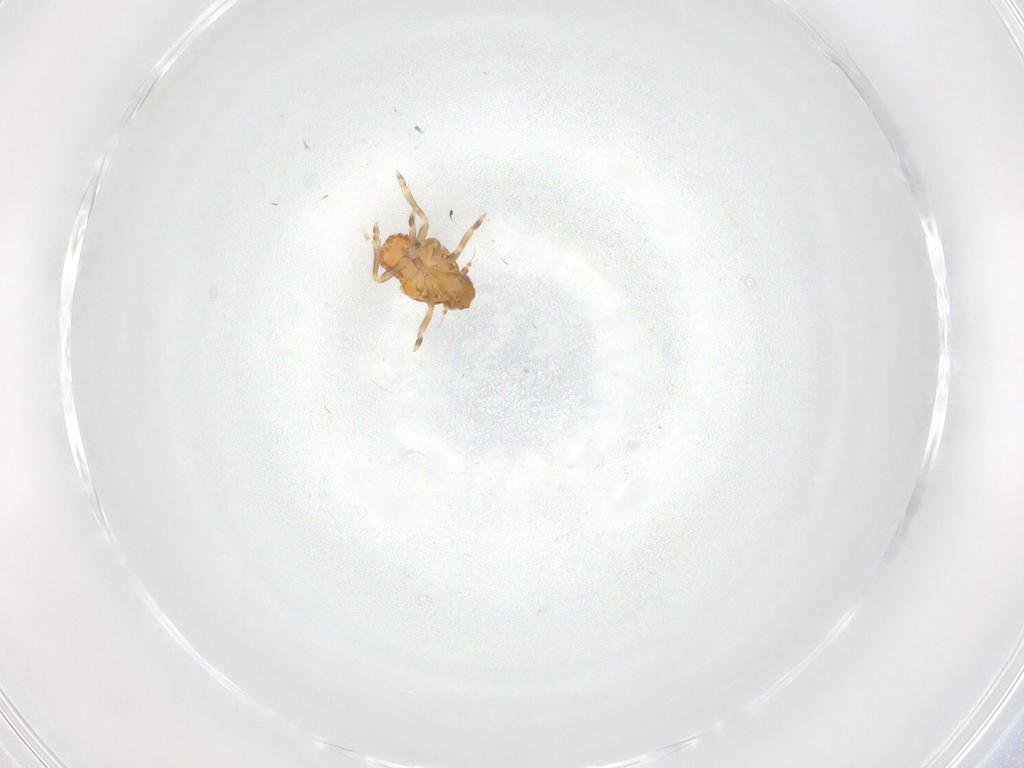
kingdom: Animalia
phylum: Arthropoda
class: Insecta
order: Hemiptera
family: Flatidae
